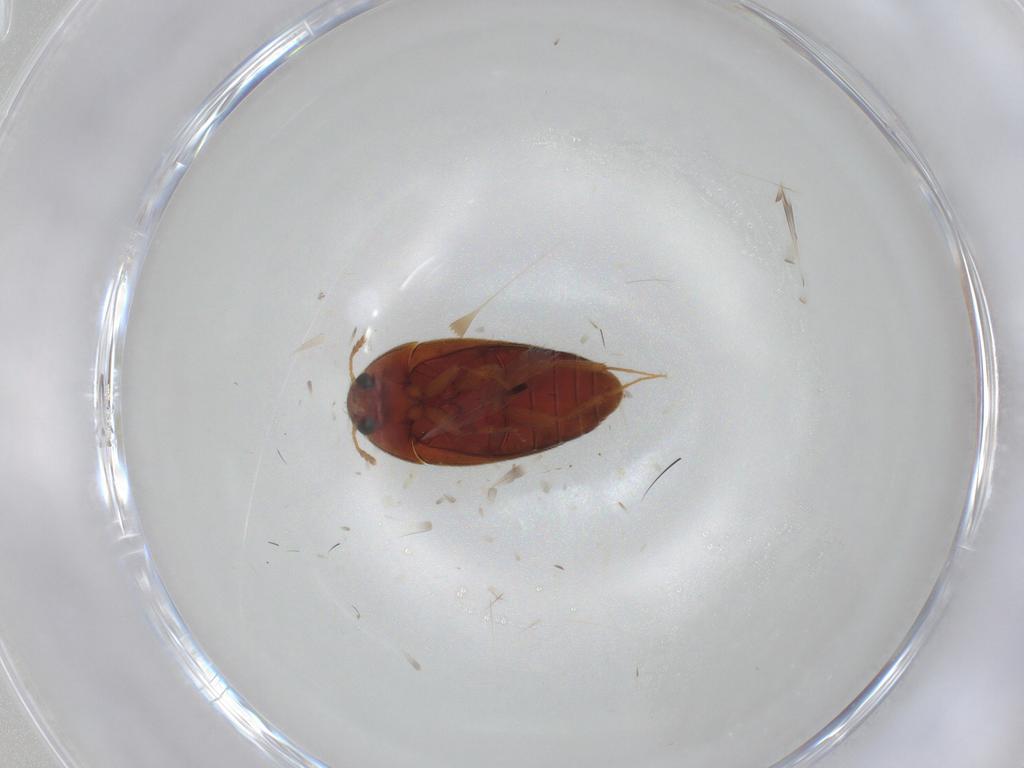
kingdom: Animalia
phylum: Arthropoda
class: Insecta
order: Coleoptera
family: Mycetophagidae
